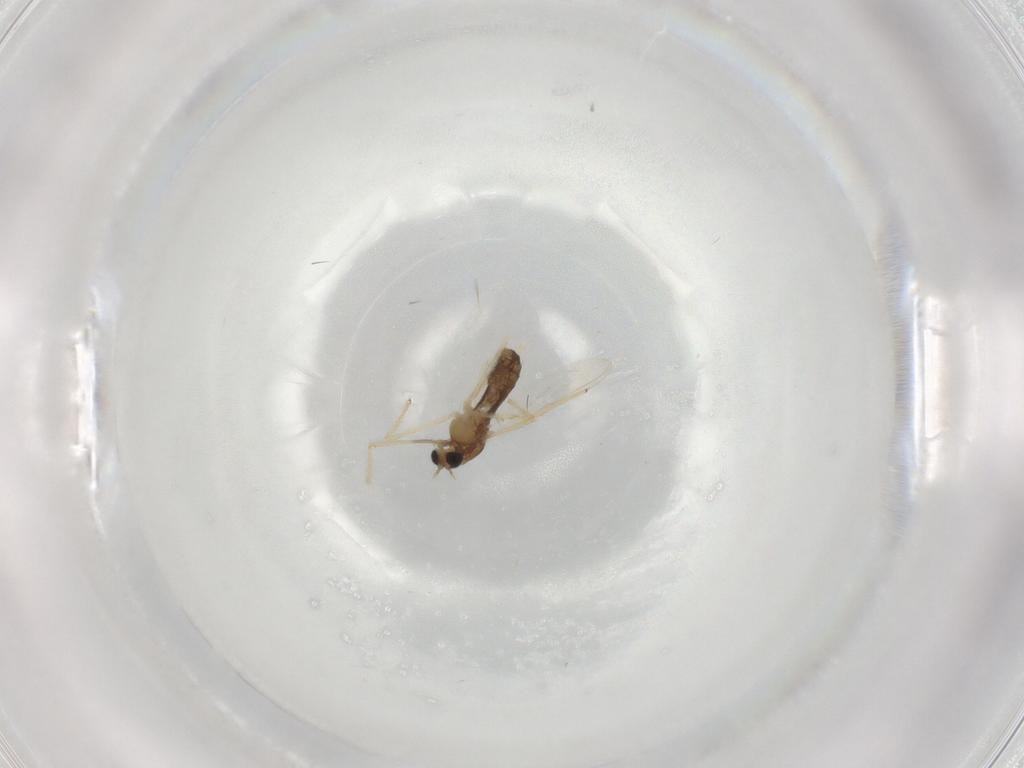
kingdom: Animalia
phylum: Arthropoda
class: Insecta
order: Diptera
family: Chironomidae
